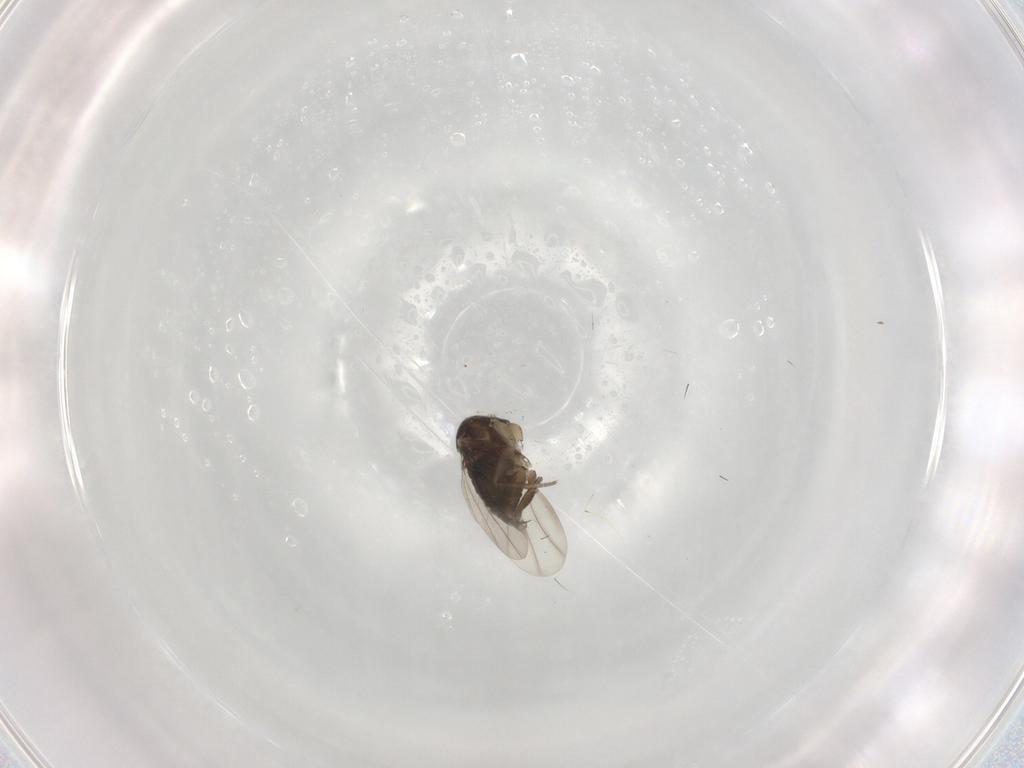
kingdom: Animalia
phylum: Arthropoda
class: Insecta
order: Diptera
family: Phoridae
